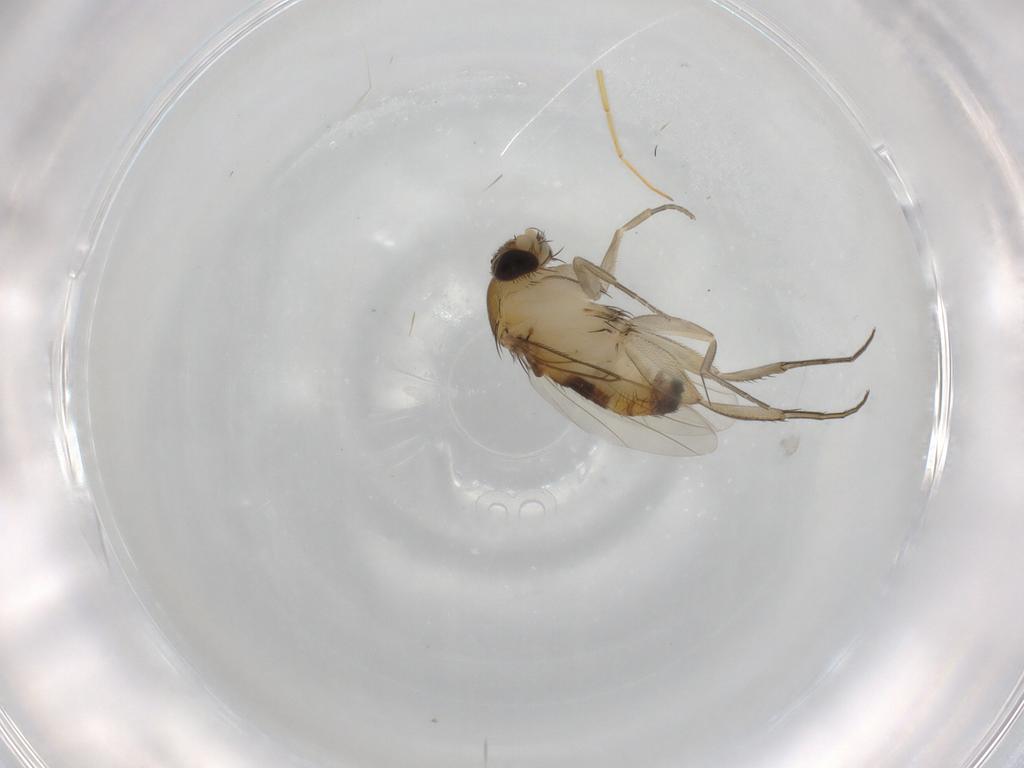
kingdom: Animalia
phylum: Arthropoda
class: Insecta
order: Diptera
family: Phoridae
